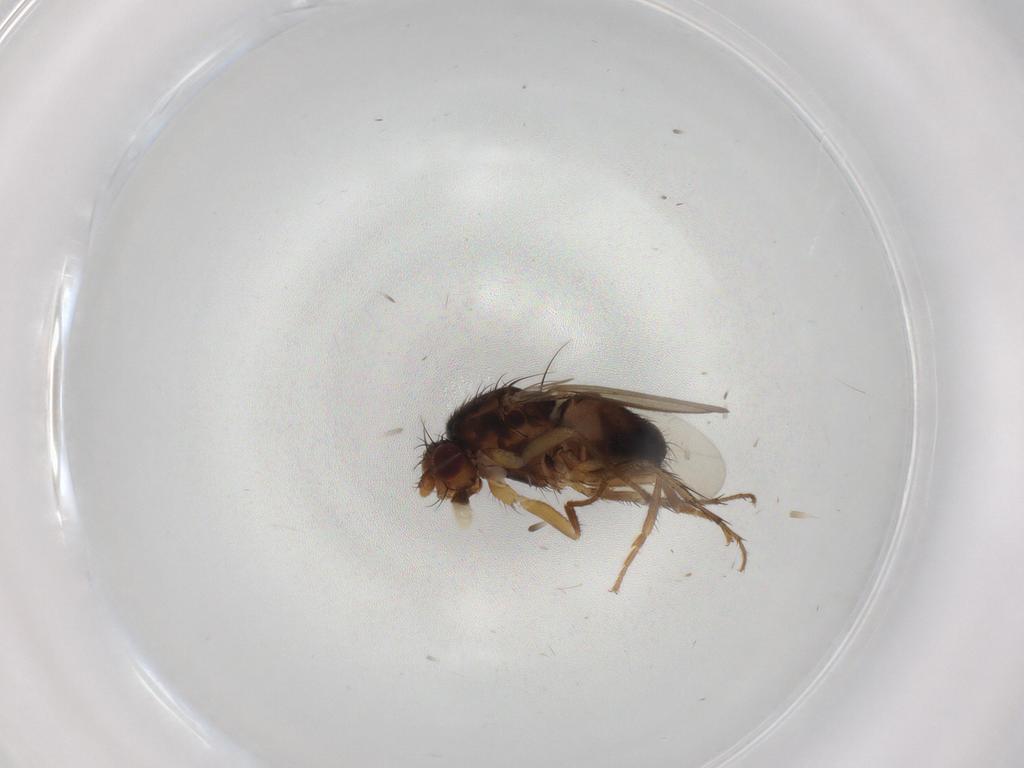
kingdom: Animalia
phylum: Arthropoda
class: Insecta
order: Diptera
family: Sphaeroceridae
